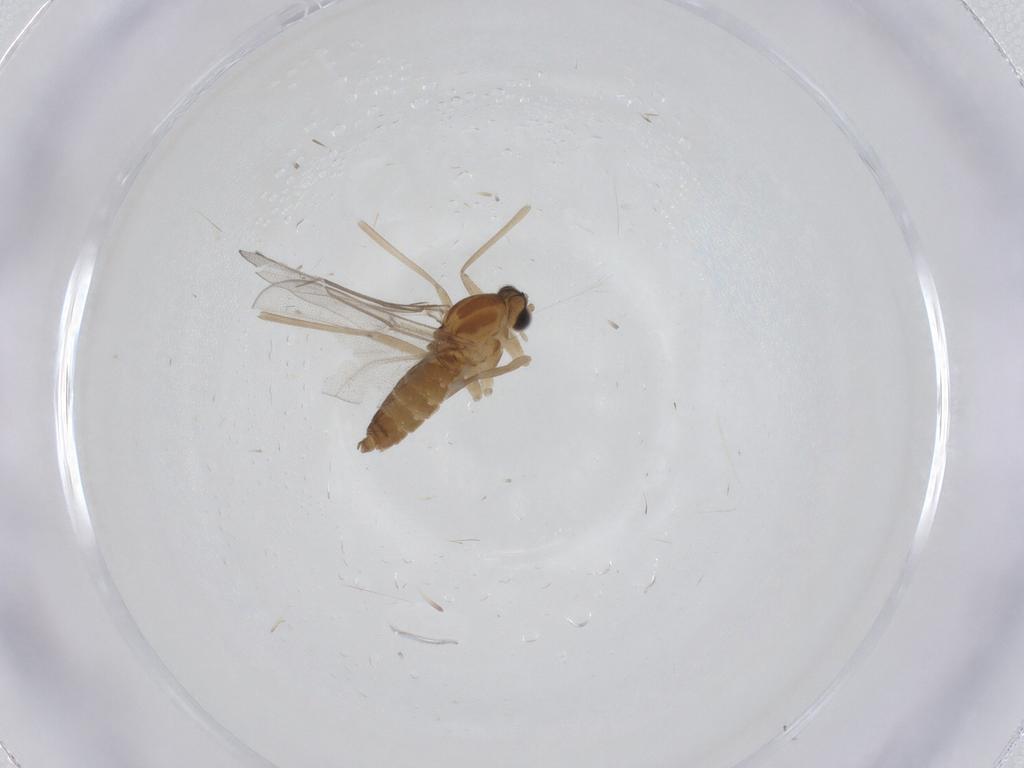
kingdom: Animalia
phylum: Arthropoda
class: Insecta
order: Diptera
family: Cecidomyiidae
